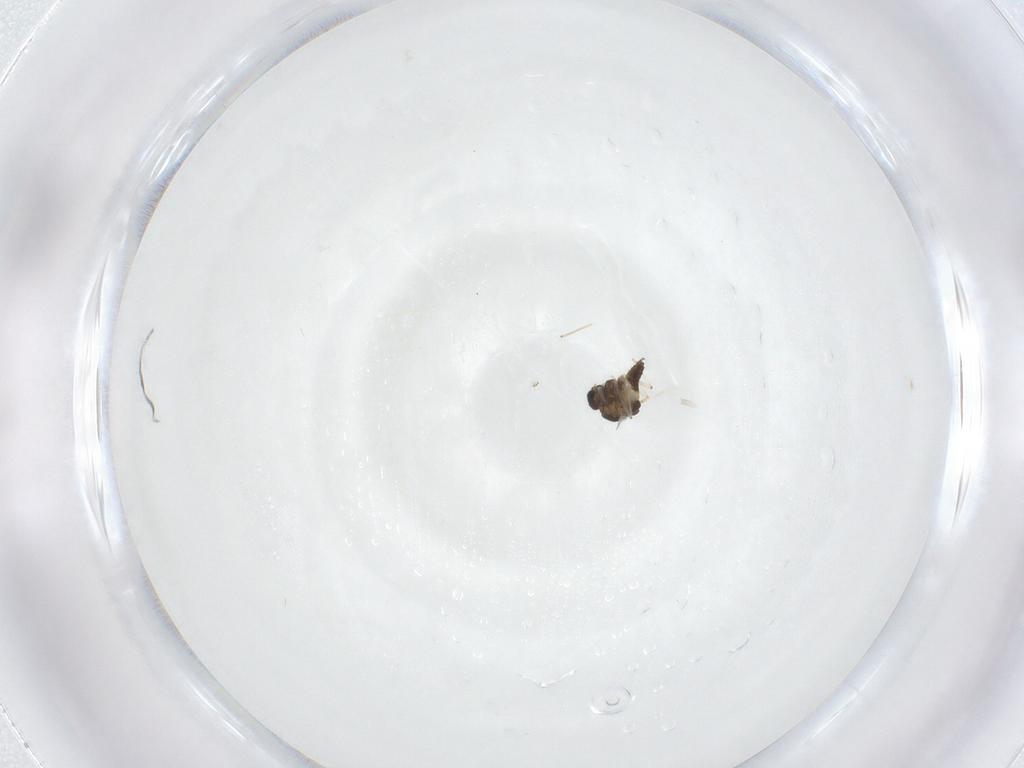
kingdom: Animalia
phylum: Arthropoda
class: Insecta
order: Diptera
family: Chironomidae
